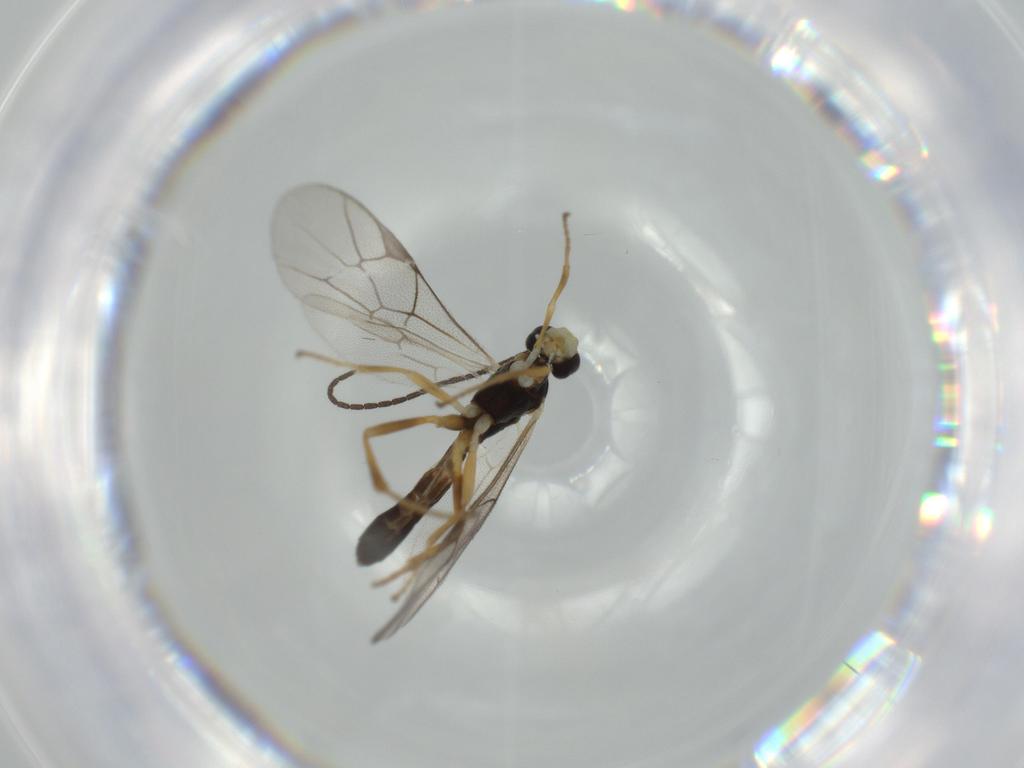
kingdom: Animalia
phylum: Arthropoda
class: Insecta
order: Hymenoptera
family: Ichneumonidae
